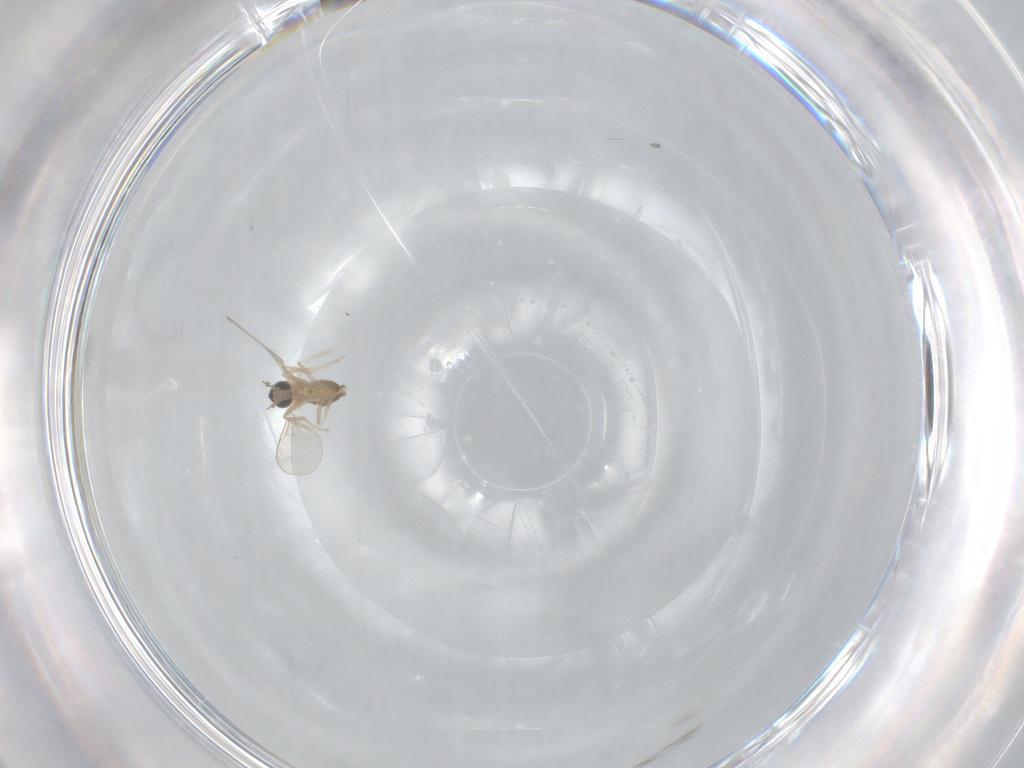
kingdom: Animalia
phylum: Arthropoda
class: Insecta
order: Diptera
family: Cecidomyiidae
